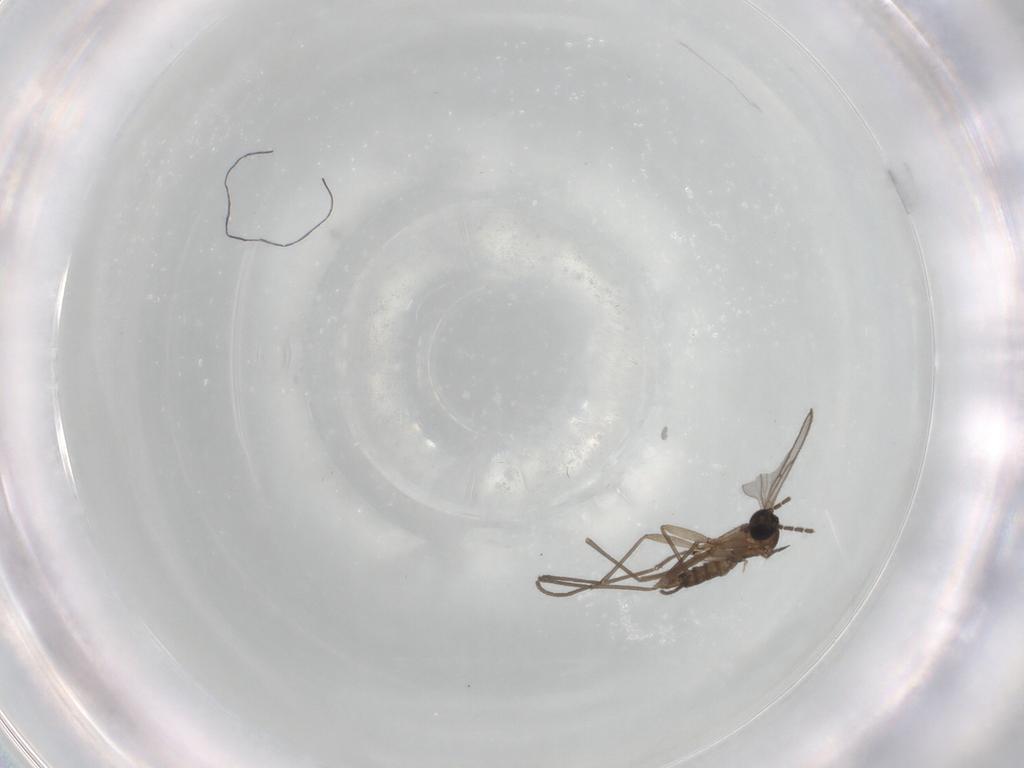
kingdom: Animalia
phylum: Arthropoda
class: Insecta
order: Diptera
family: Sciaridae
